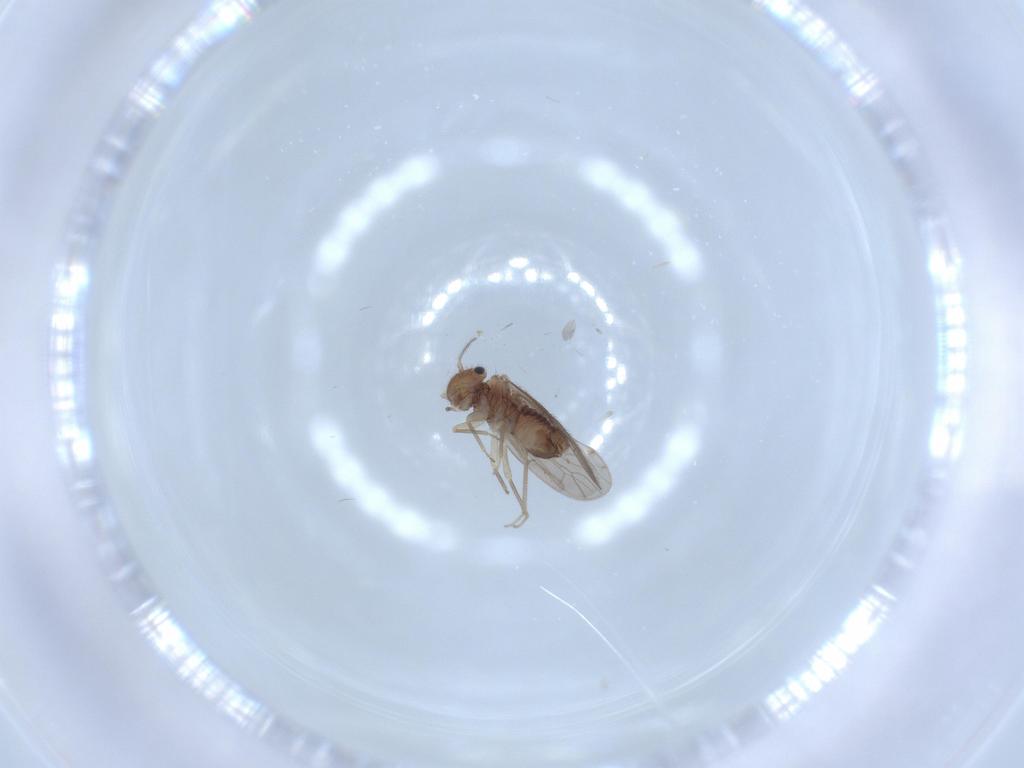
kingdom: Animalia
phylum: Arthropoda
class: Insecta
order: Psocodea
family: Ectopsocidae
